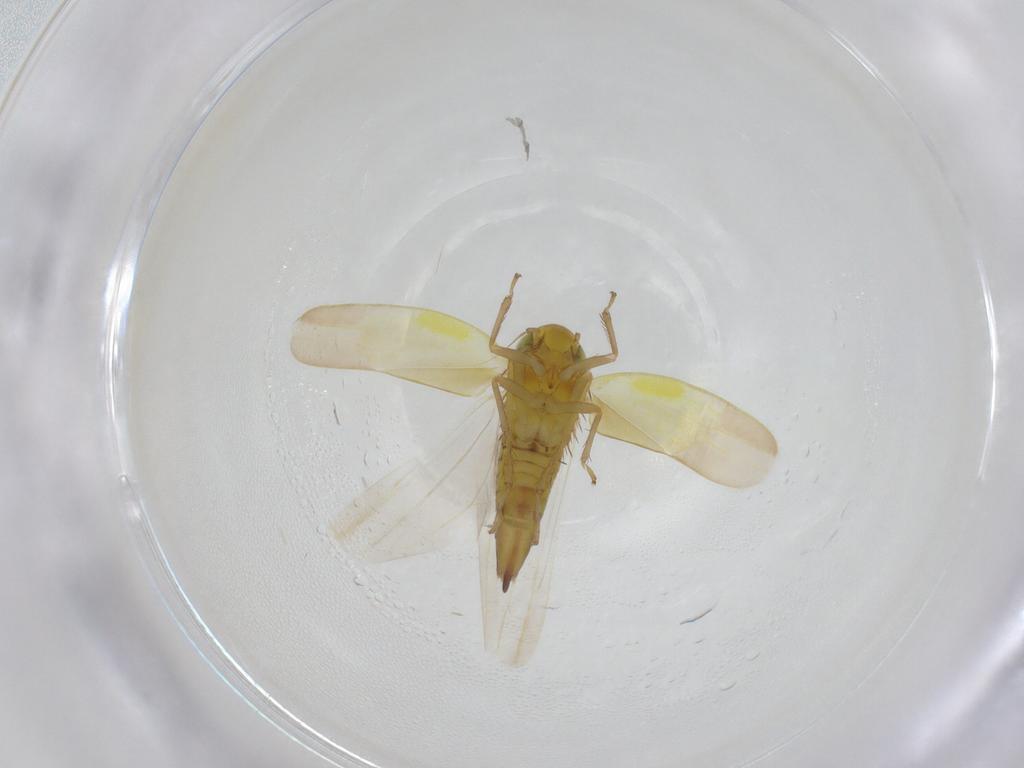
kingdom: Animalia
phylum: Arthropoda
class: Insecta
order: Hemiptera
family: Cicadellidae
